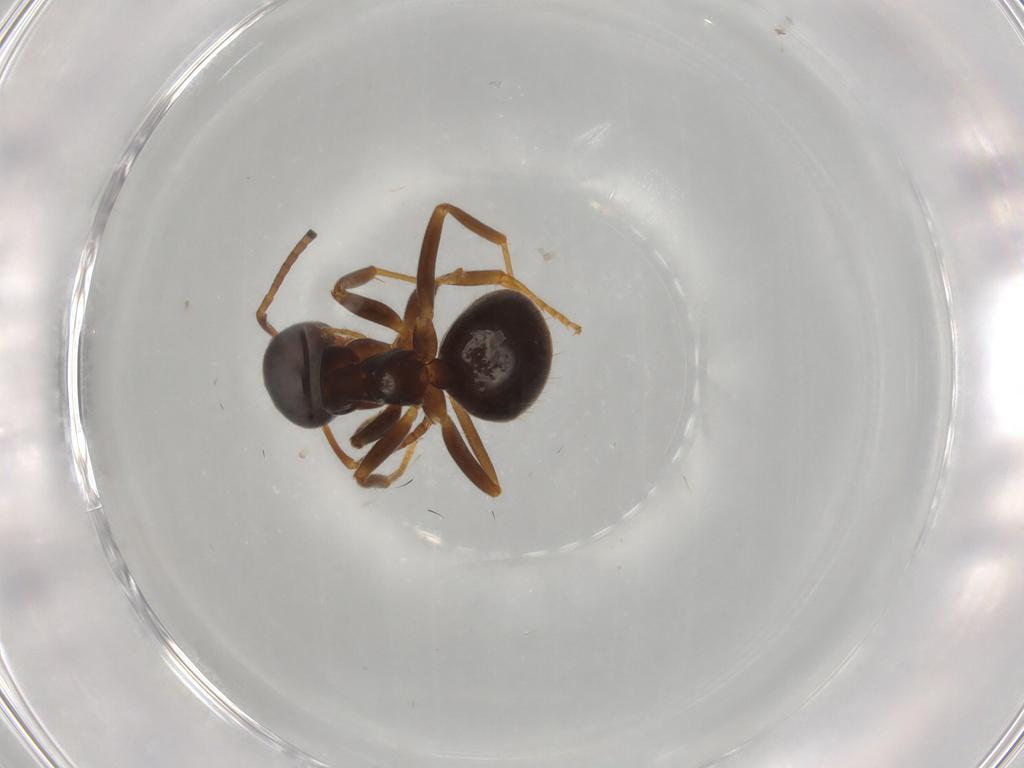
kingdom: Animalia
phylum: Arthropoda
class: Insecta
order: Hymenoptera
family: Formicidae
